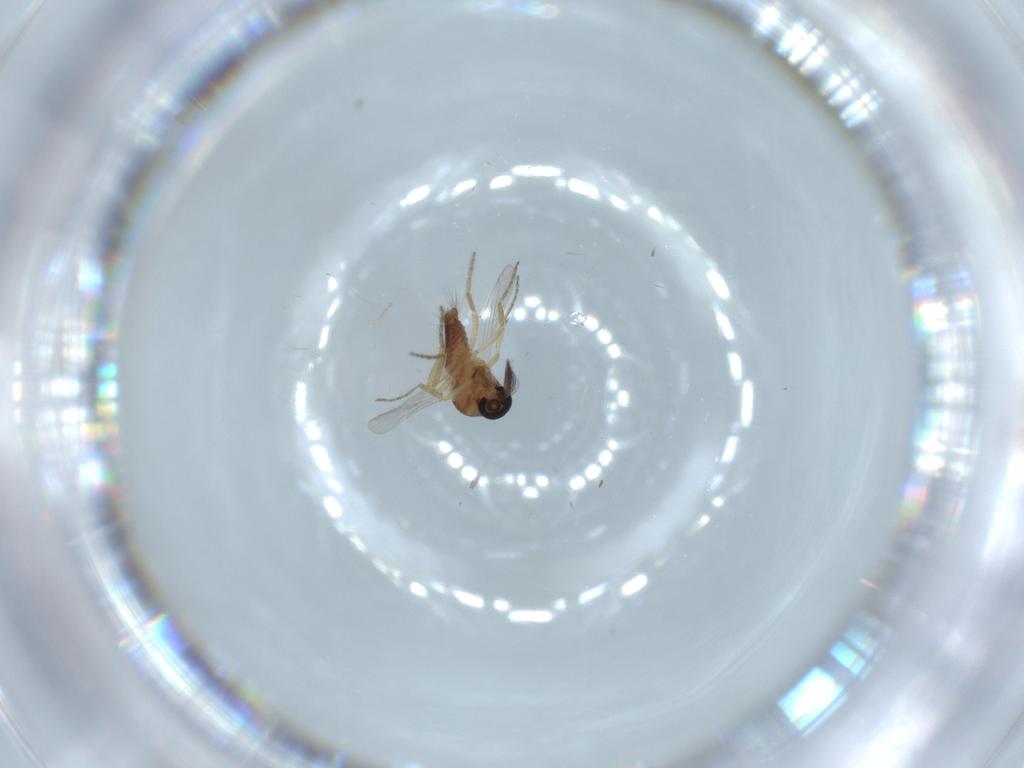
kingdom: Animalia
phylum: Arthropoda
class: Insecta
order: Diptera
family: Ceratopogonidae
